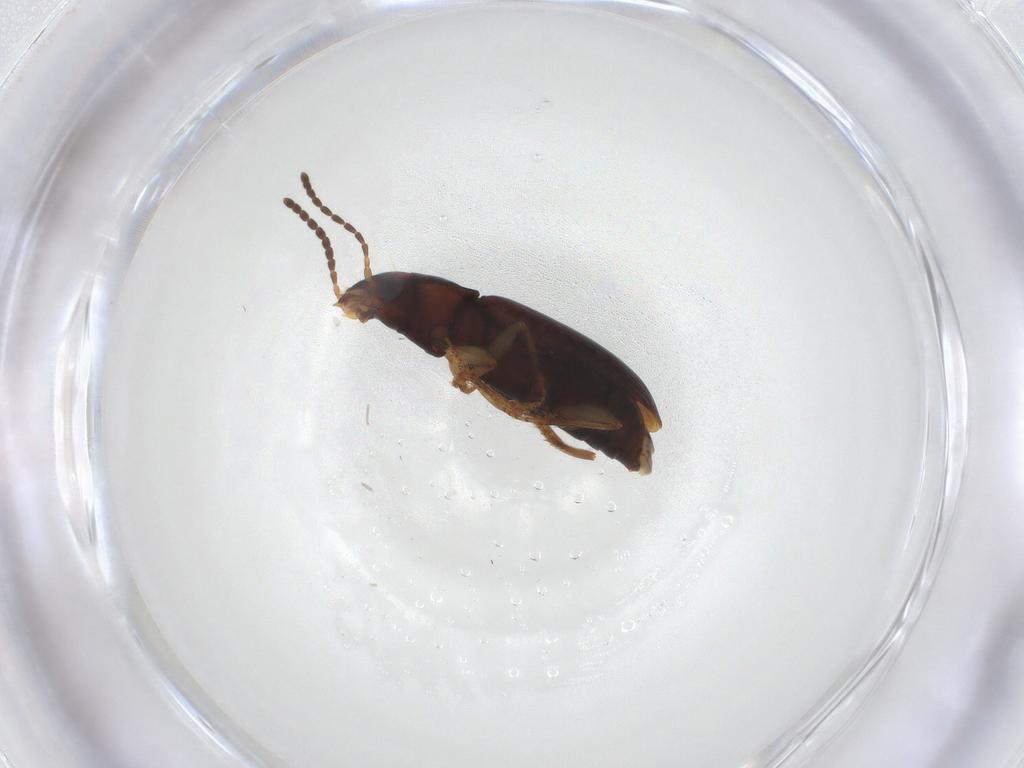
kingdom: Animalia
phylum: Arthropoda
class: Insecta
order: Coleoptera
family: Carabidae
